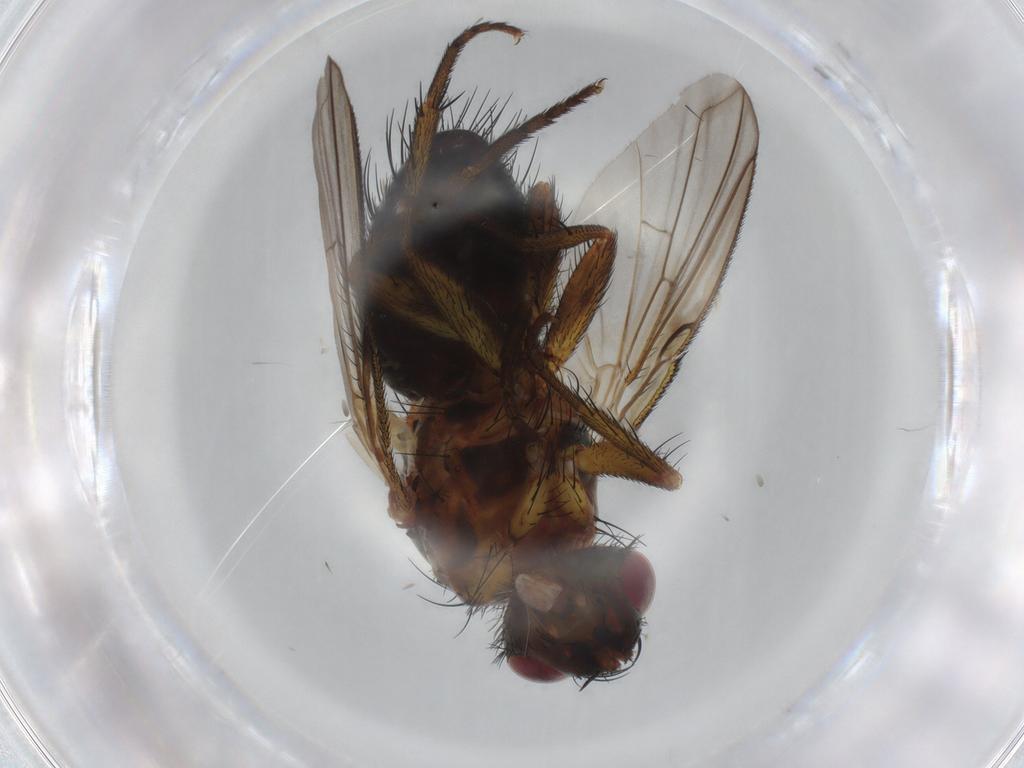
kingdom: Animalia
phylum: Arthropoda
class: Insecta
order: Diptera
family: Tachinidae
